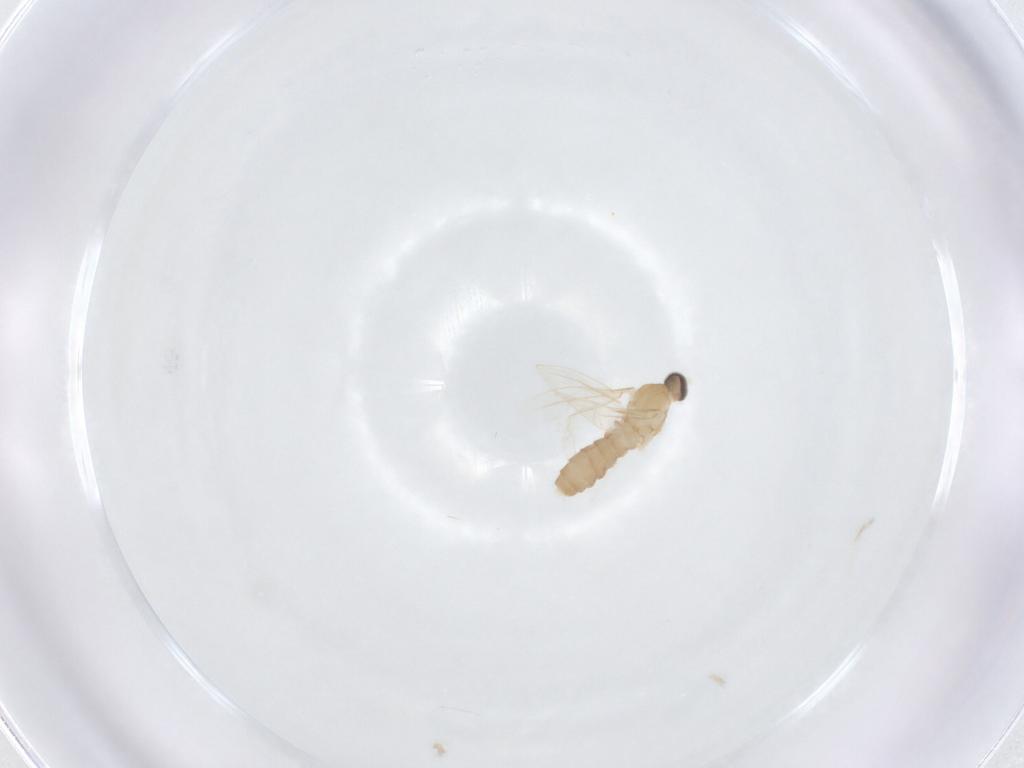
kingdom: Animalia
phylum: Arthropoda
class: Insecta
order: Diptera
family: Cecidomyiidae
